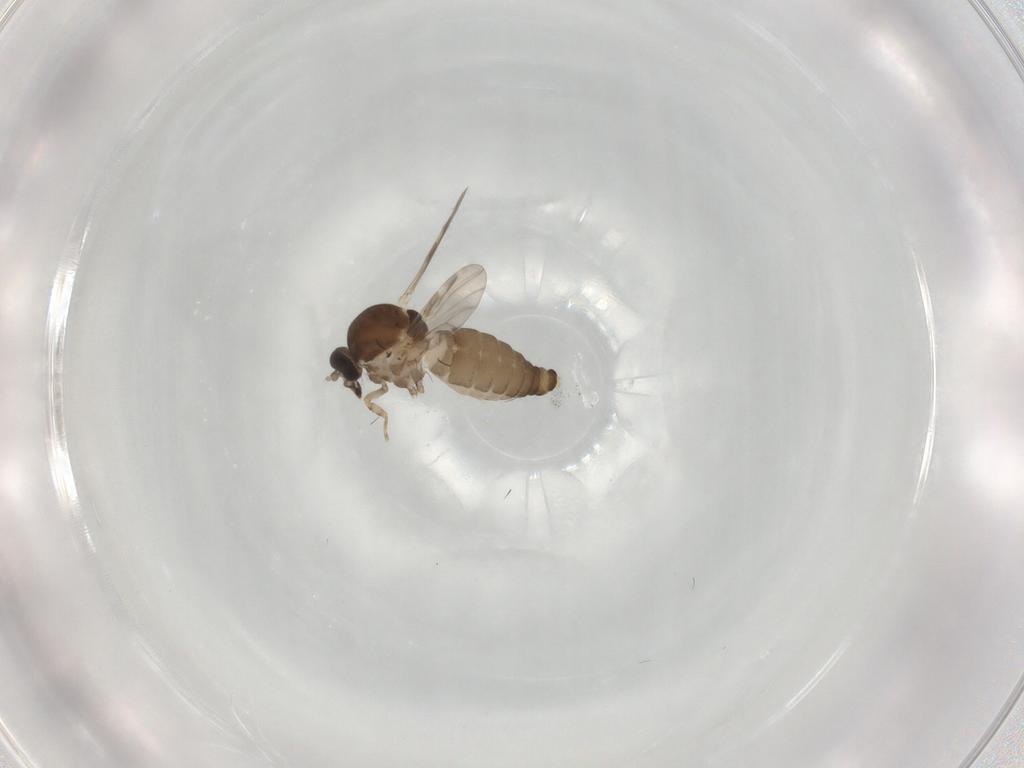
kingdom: Animalia
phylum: Arthropoda
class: Insecta
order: Diptera
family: Ceratopogonidae
